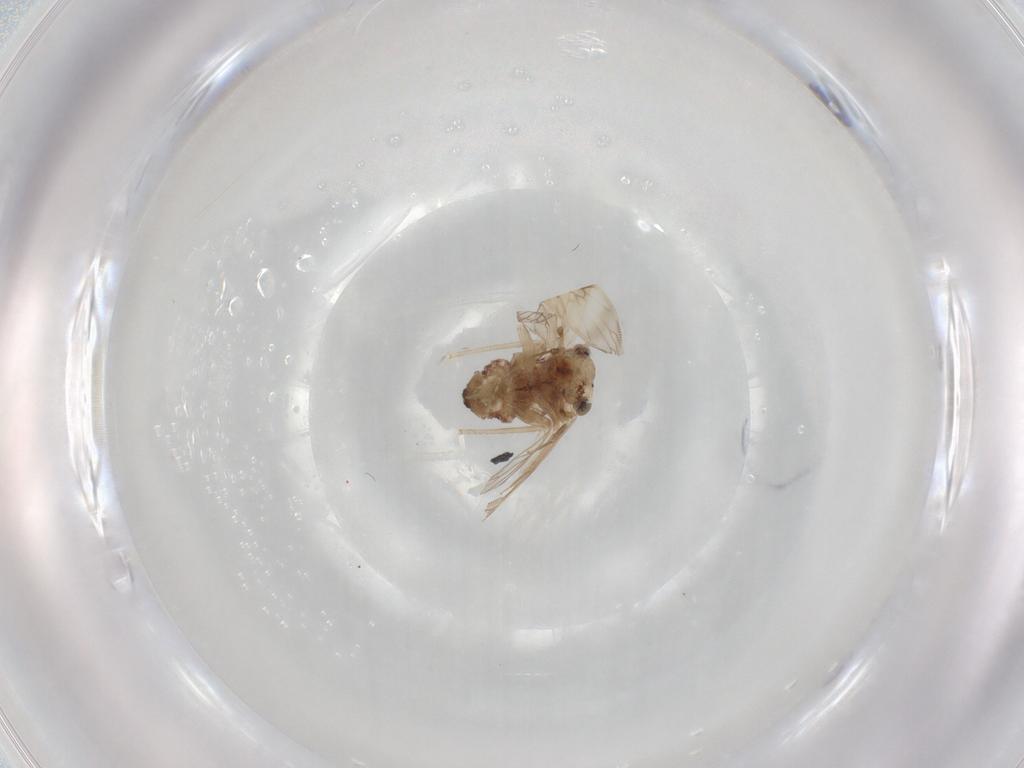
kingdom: Animalia
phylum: Arthropoda
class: Insecta
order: Psocodea
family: Lepidopsocidae
